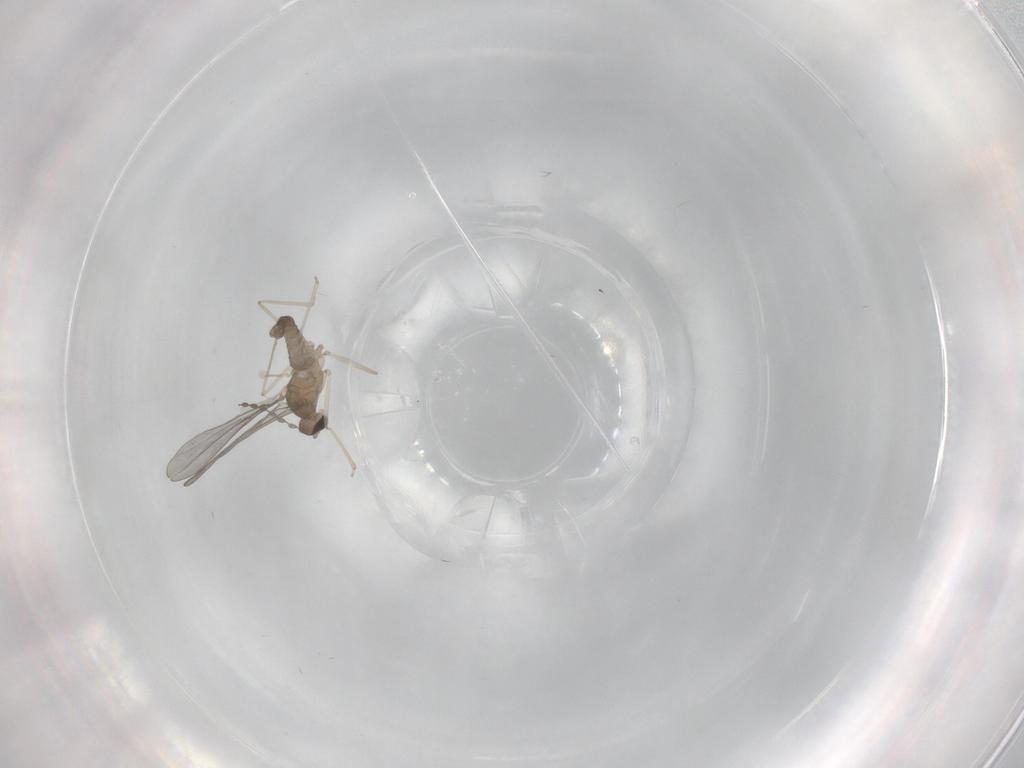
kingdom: Animalia
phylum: Arthropoda
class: Insecta
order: Diptera
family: Cecidomyiidae
